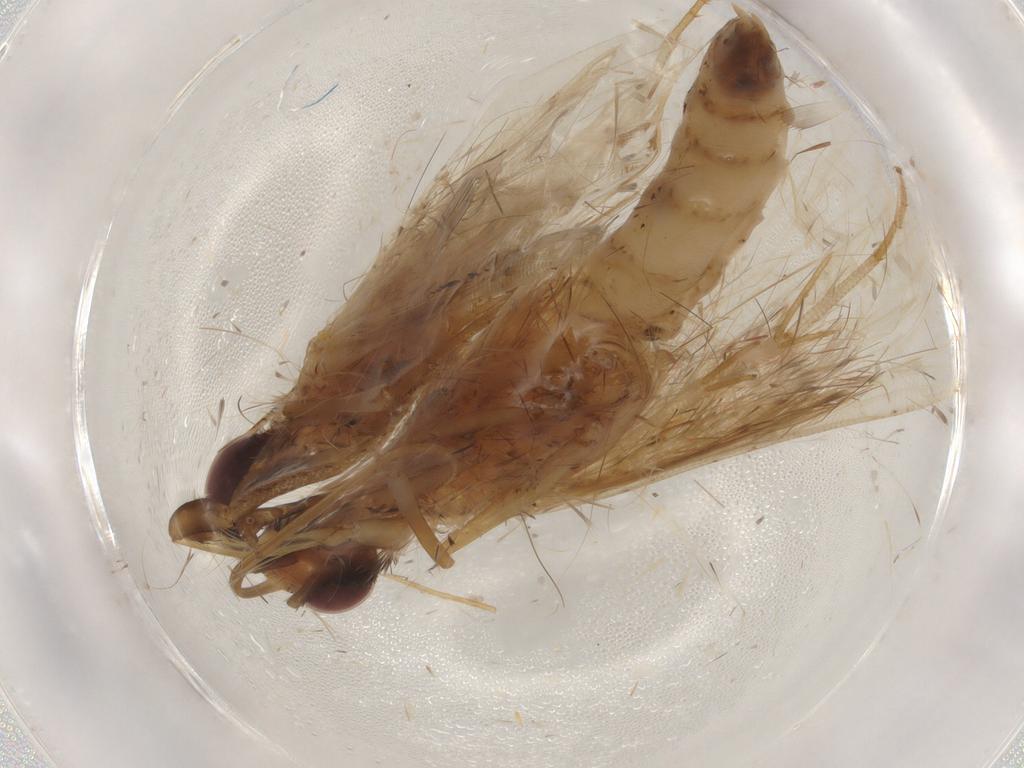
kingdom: Animalia
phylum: Arthropoda
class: Insecta
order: Lepidoptera
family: Erebidae
